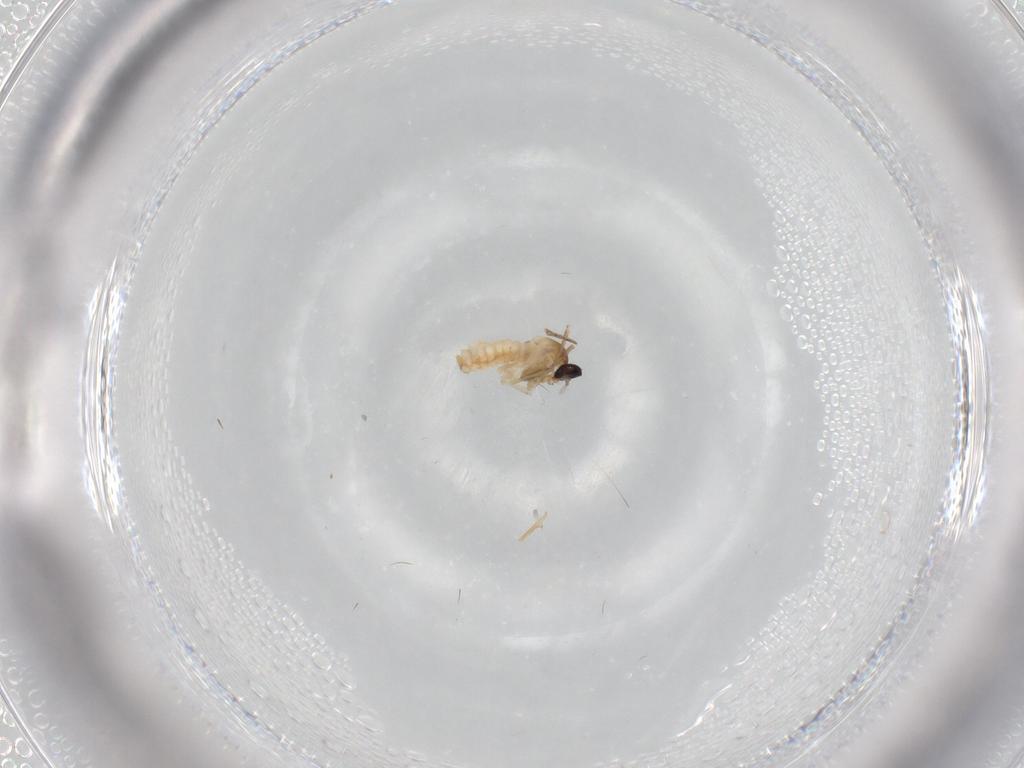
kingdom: Animalia
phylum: Arthropoda
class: Insecta
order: Diptera
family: Cecidomyiidae
